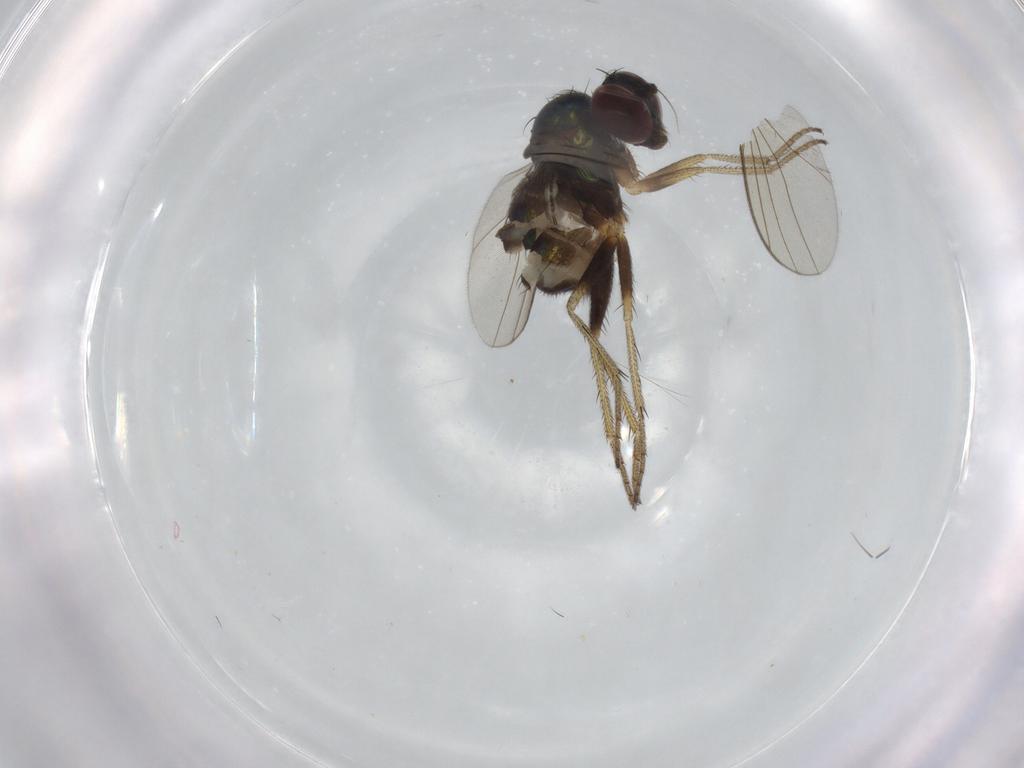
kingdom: Animalia
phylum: Arthropoda
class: Insecta
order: Diptera
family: Dolichopodidae
